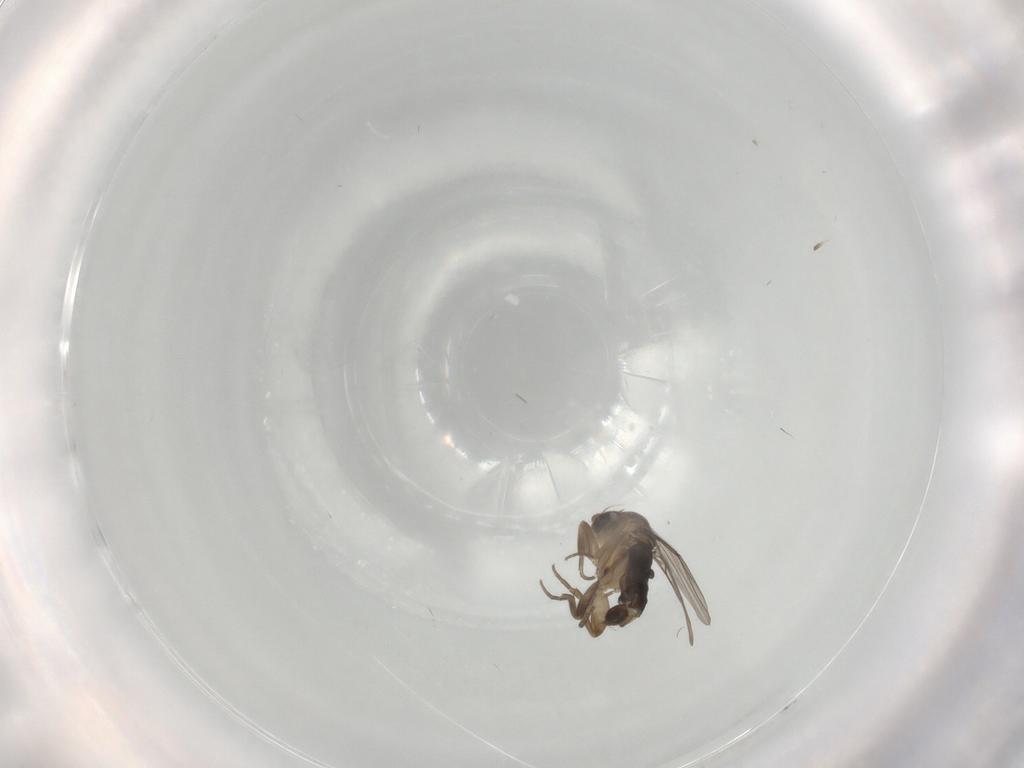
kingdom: Animalia
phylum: Arthropoda
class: Insecta
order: Diptera
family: Phoridae
